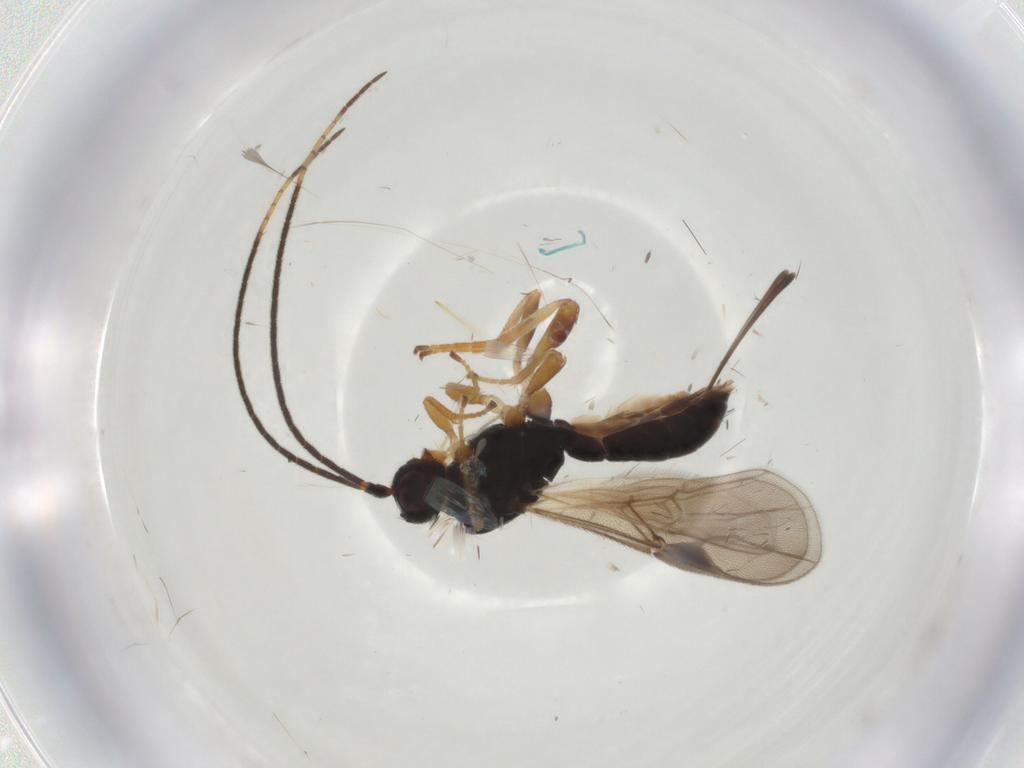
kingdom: Animalia
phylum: Arthropoda
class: Insecta
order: Hymenoptera
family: Braconidae
